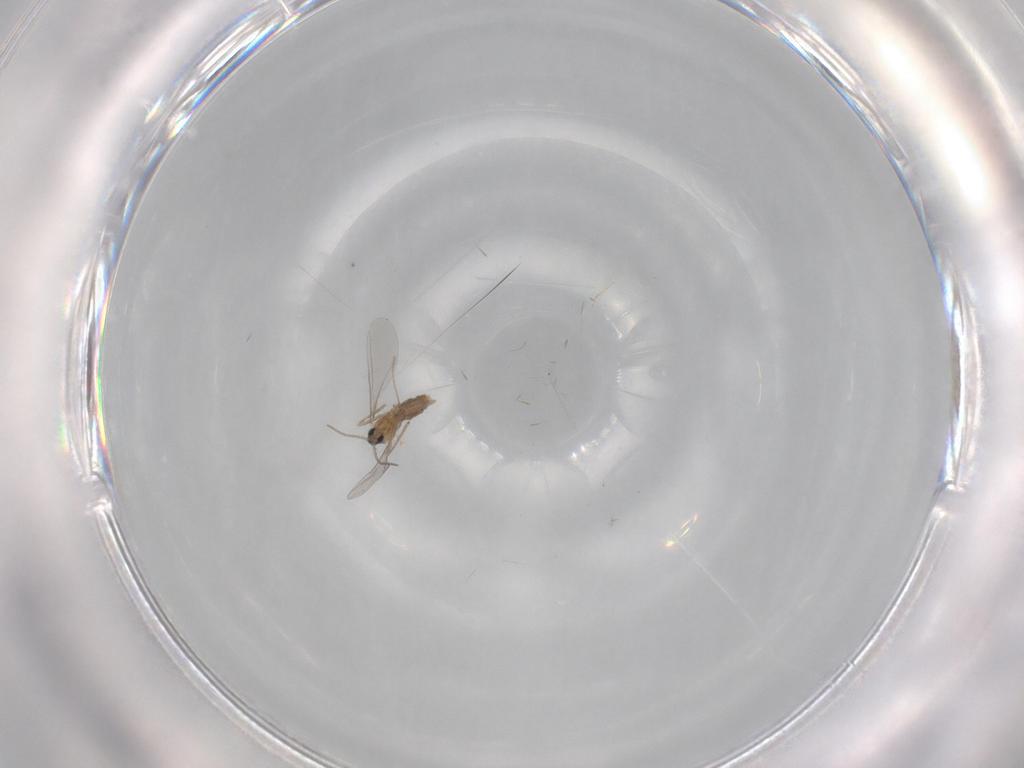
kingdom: Animalia
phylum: Arthropoda
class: Insecta
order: Diptera
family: Cecidomyiidae
